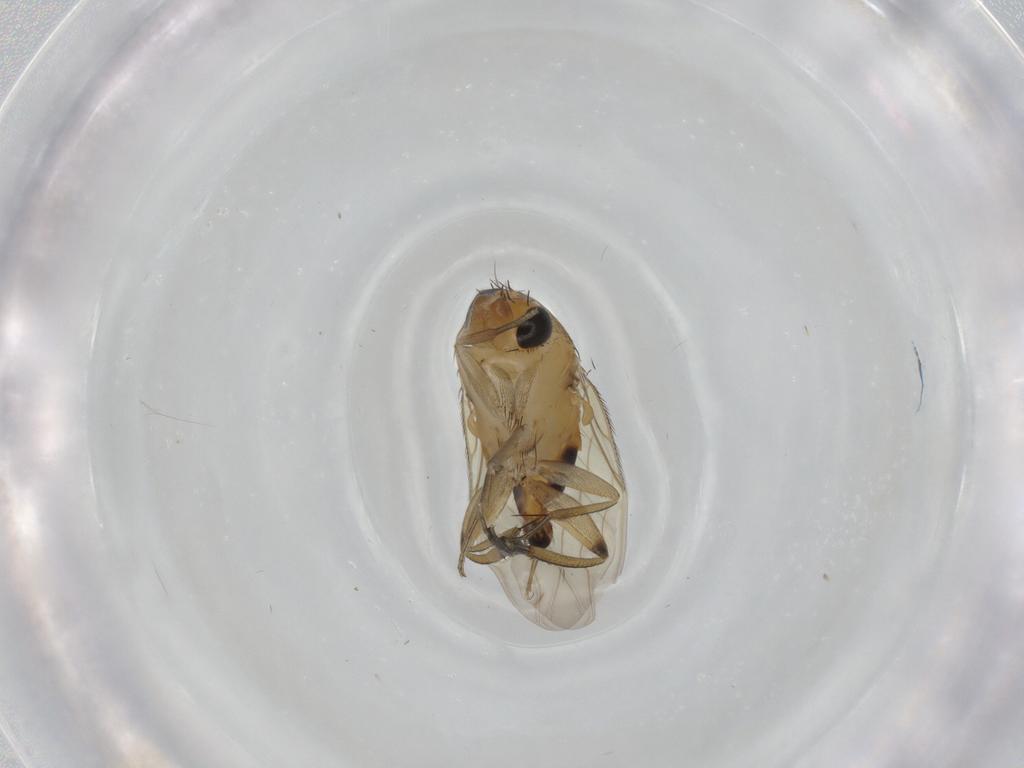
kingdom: Animalia
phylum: Arthropoda
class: Insecta
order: Diptera
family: Phoridae
